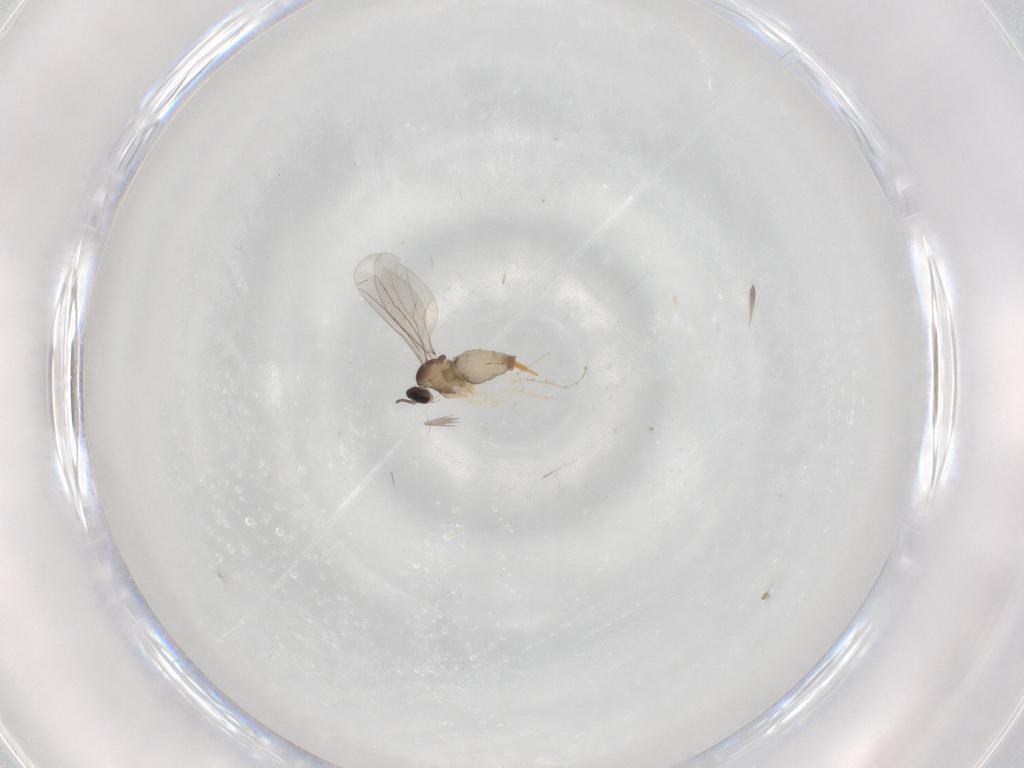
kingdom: Animalia
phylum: Arthropoda
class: Insecta
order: Diptera
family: Cecidomyiidae
